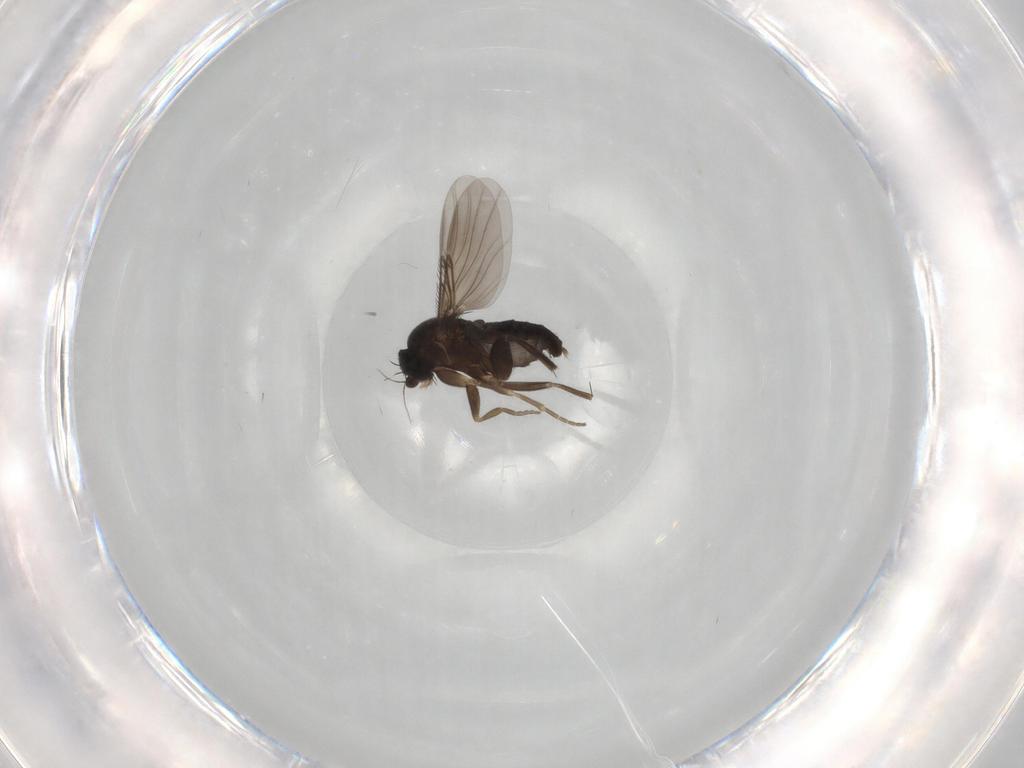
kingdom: Animalia
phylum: Arthropoda
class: Insecta
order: Diptera
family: Phoridae
